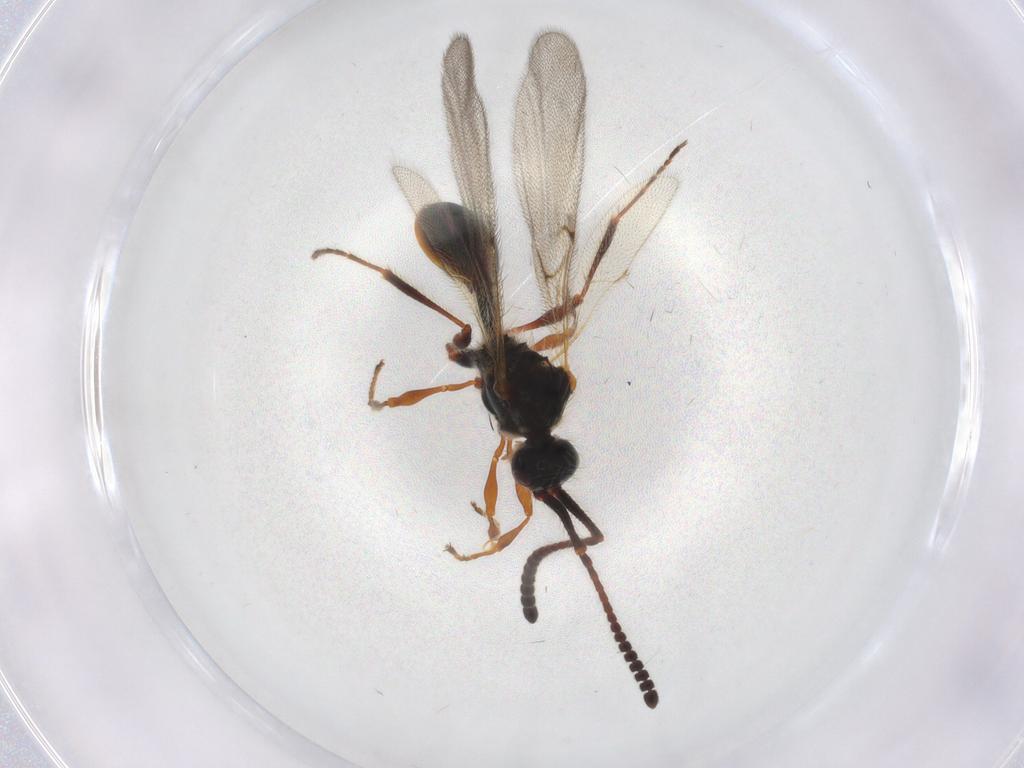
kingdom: Animalia
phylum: Arthropoda
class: Insecta
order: Hymenoptera
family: Diapriidae
